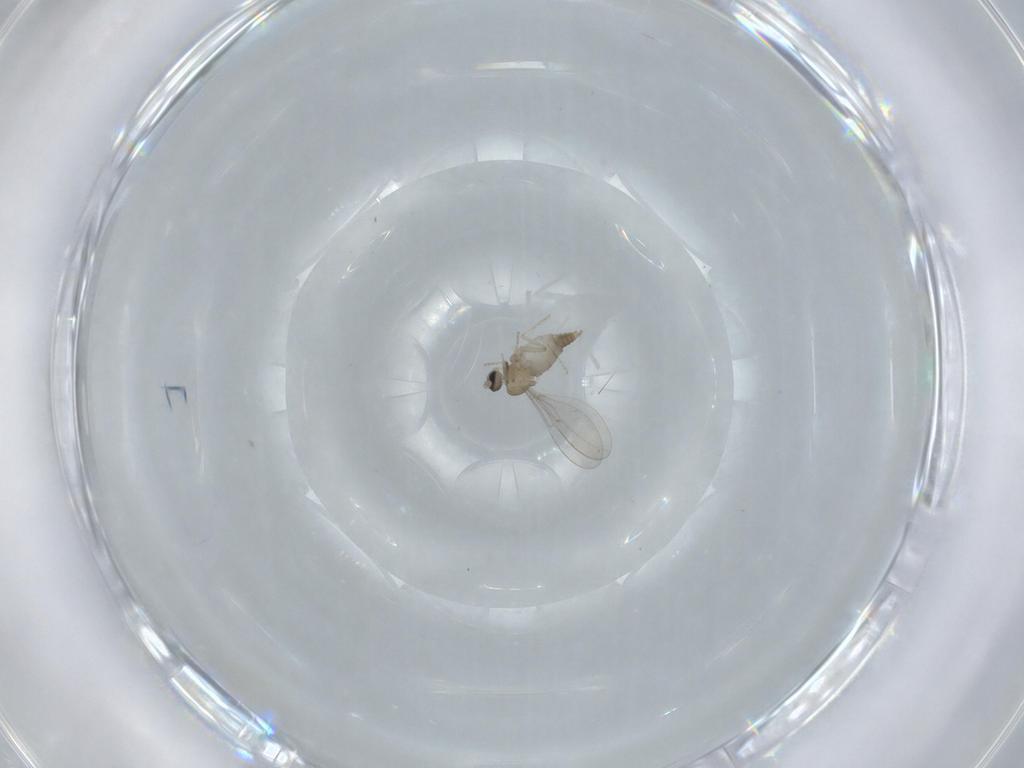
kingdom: Animalia
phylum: Arthropoda
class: Insecta
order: Diptera
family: Cecidomyiidae
